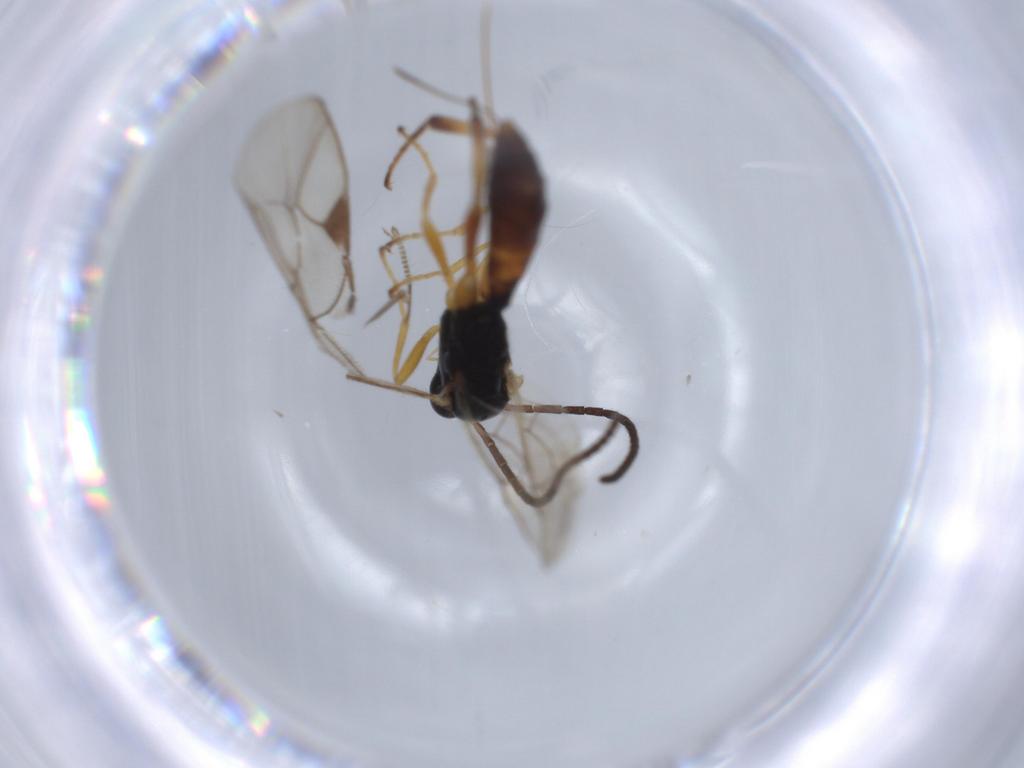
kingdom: Animalia
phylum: Arthropoda
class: Insecta
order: Hymenoptera
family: Ichneumonidae
